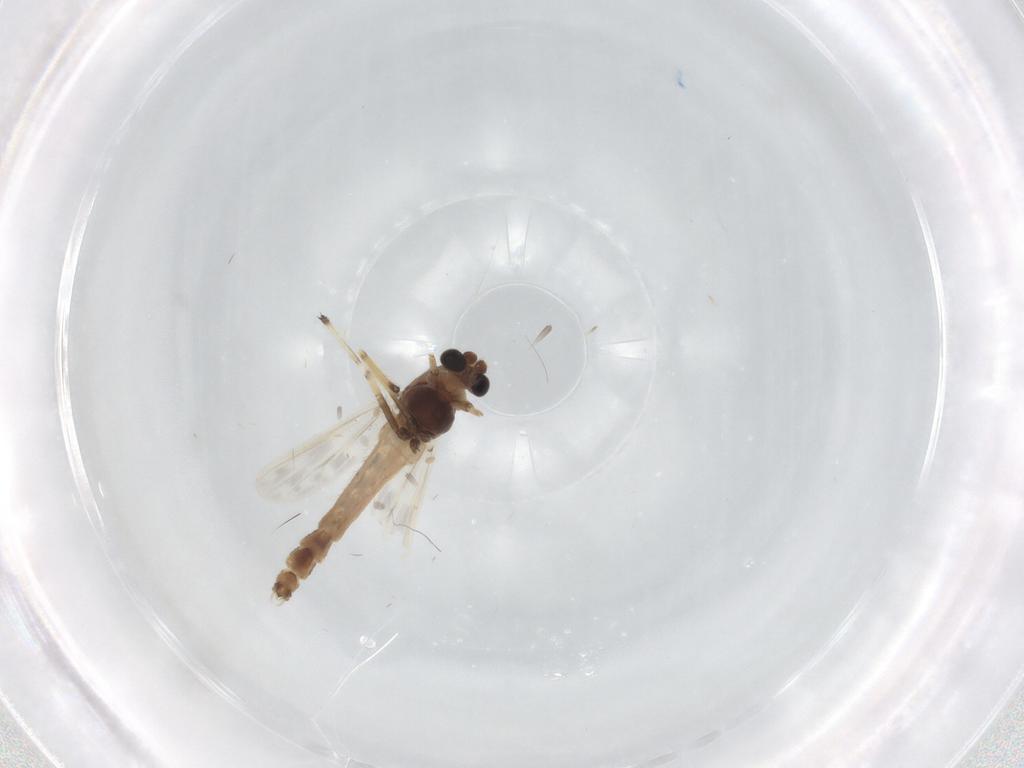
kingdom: Animalia
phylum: Arthropoda
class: Insecta
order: Diptera
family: Chironomidae
